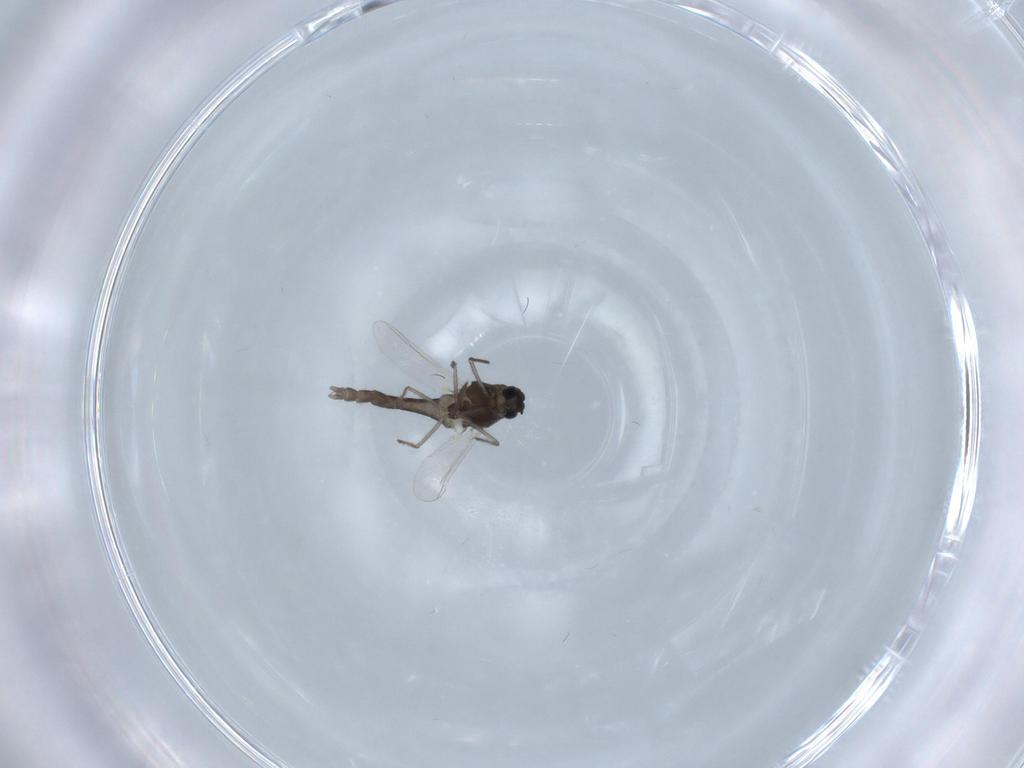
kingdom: Animalia
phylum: Arthropoda
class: Insecta
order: Diptera
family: Chironomidae
